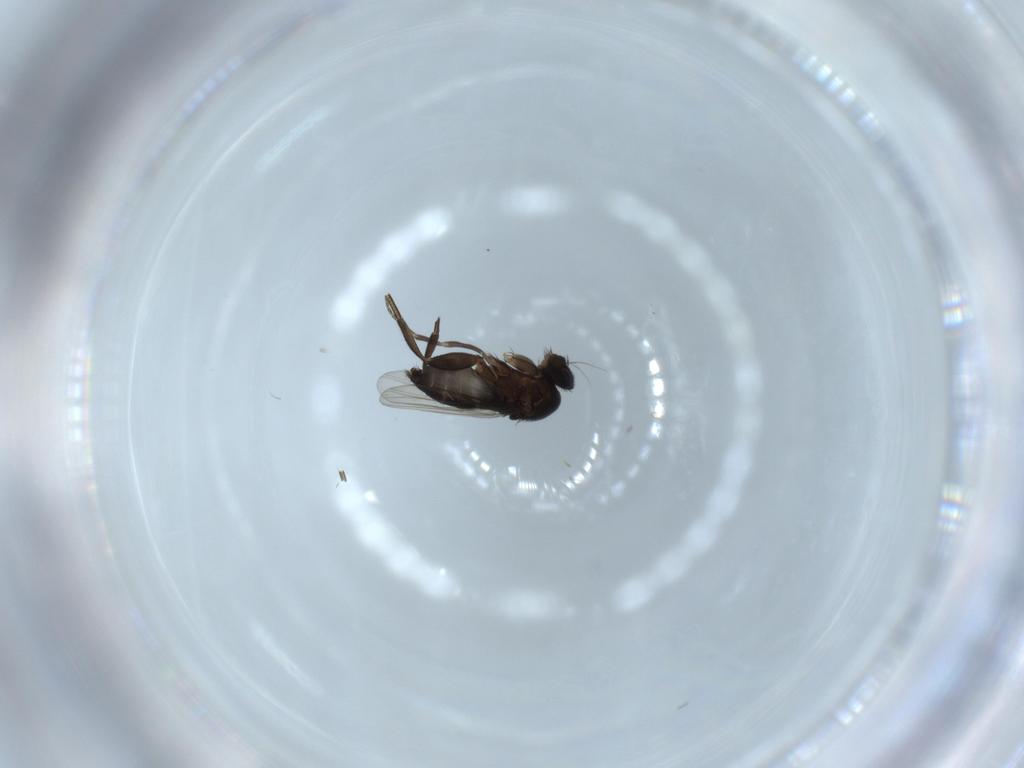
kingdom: Animalia
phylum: Arthropoda
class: Insecta
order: Diptera
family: Phoridae
